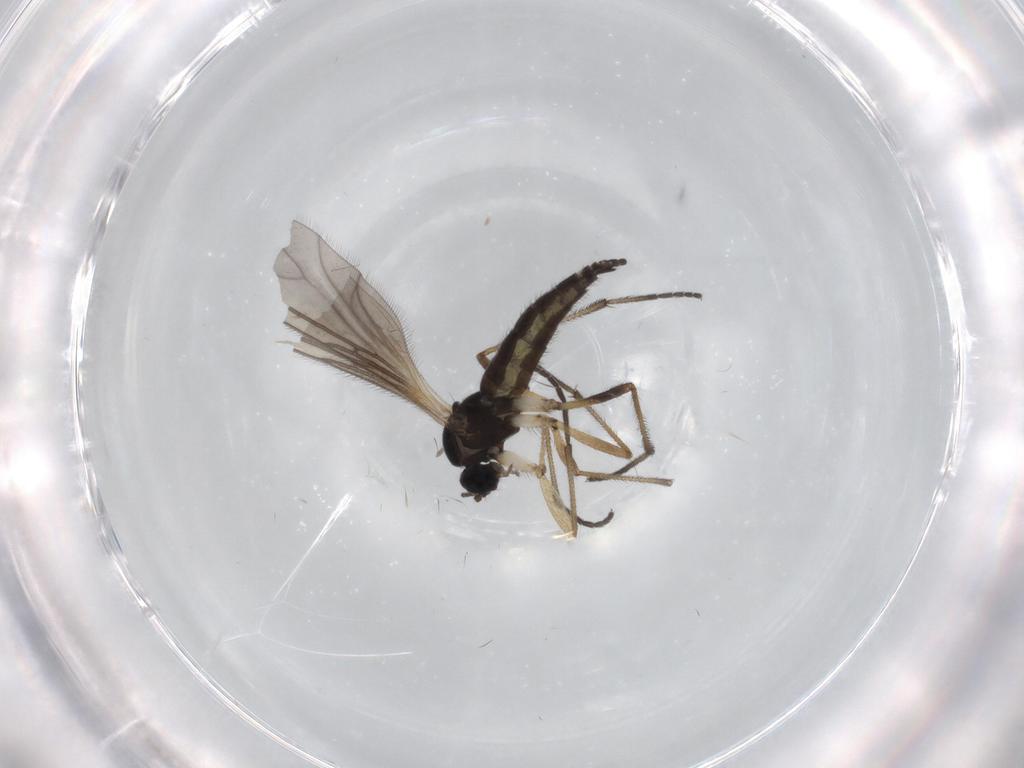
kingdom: Animalia
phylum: Arthropoda
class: Insecta
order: Diptera
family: Sciaridae
